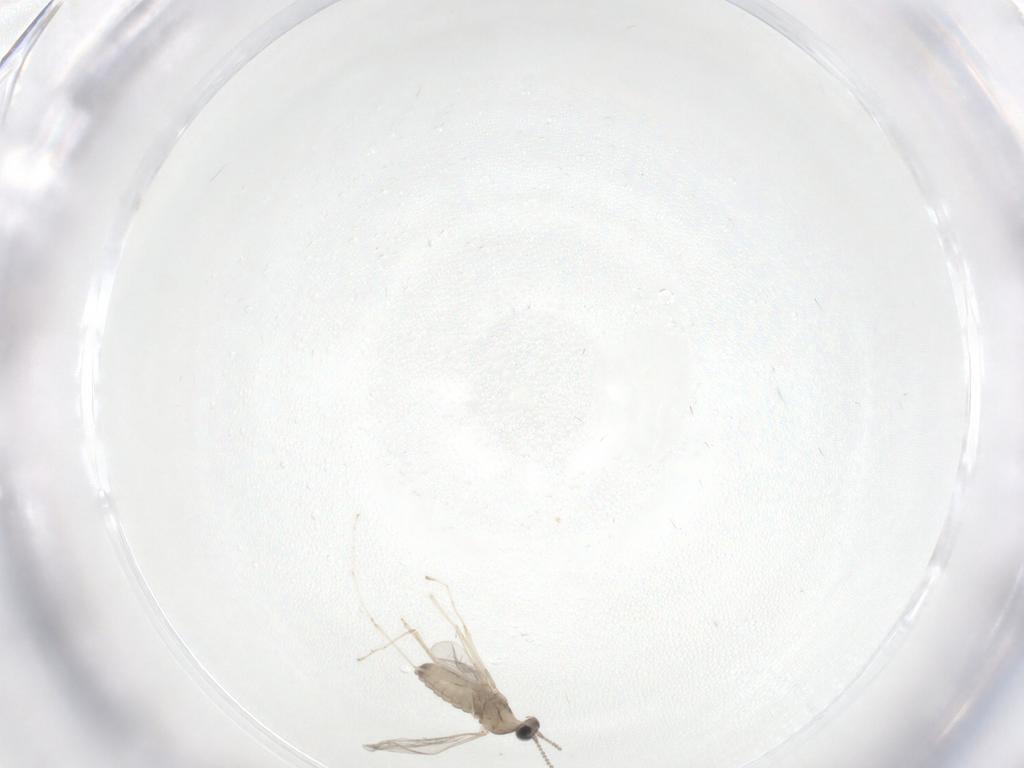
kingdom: Animalia
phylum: Arthropoda
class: Insecta
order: Diptera
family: Cecidomyiidae
